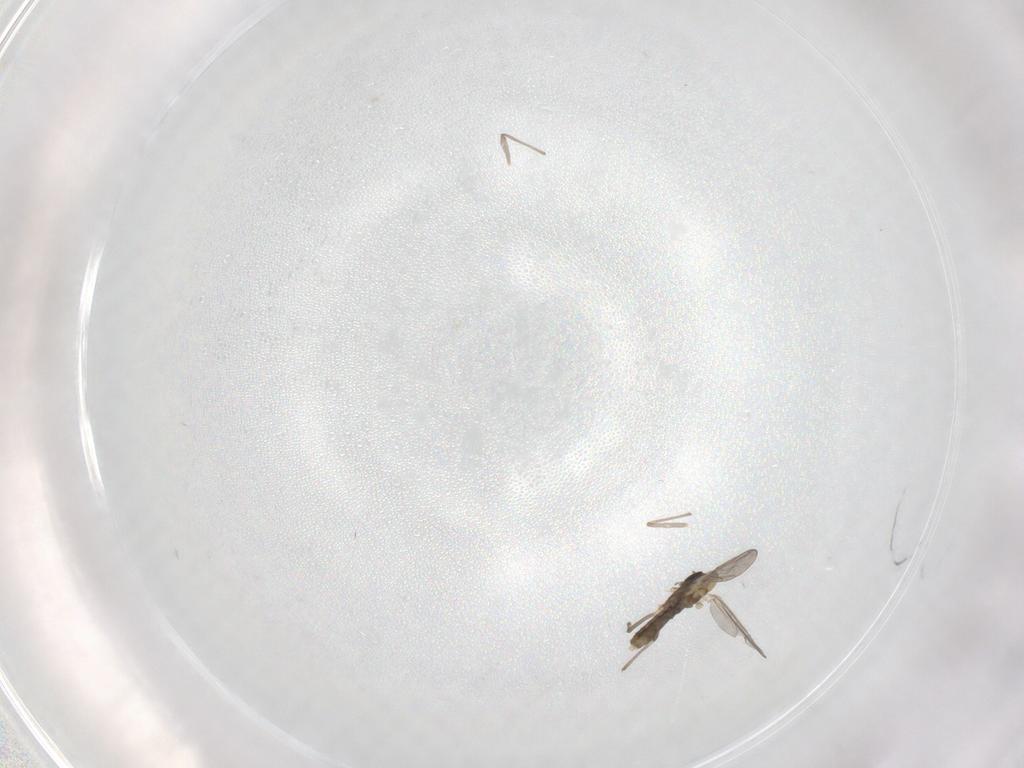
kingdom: Animalia
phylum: Arthropoda
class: Insecta
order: Diptera
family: Chironomidae
